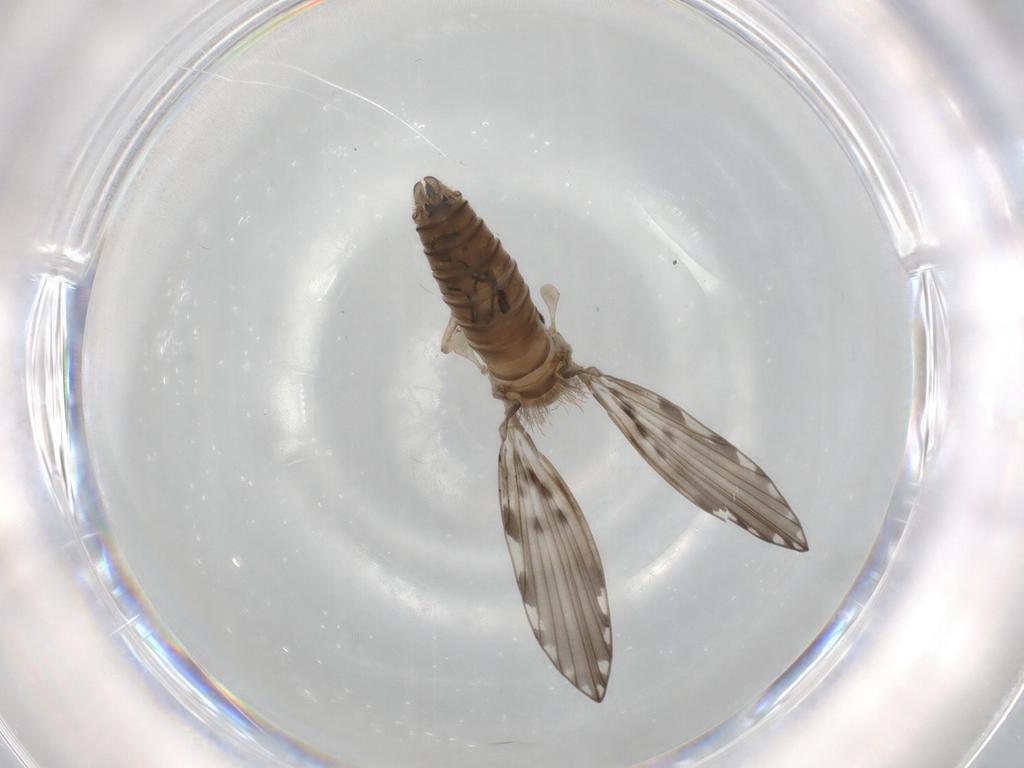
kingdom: Animalia
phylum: Arthropoda
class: Insecta
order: Diptera
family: Psychodidae
